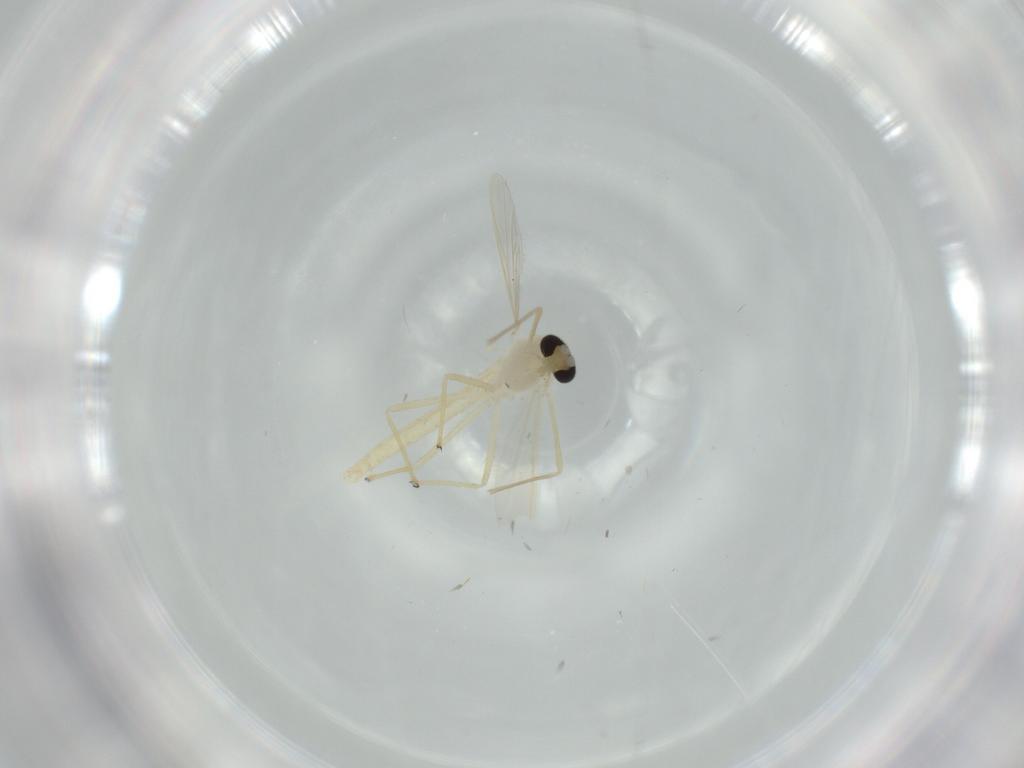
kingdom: Animalia
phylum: Arthropoda
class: Insecta
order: Diptera
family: Chironomidae
